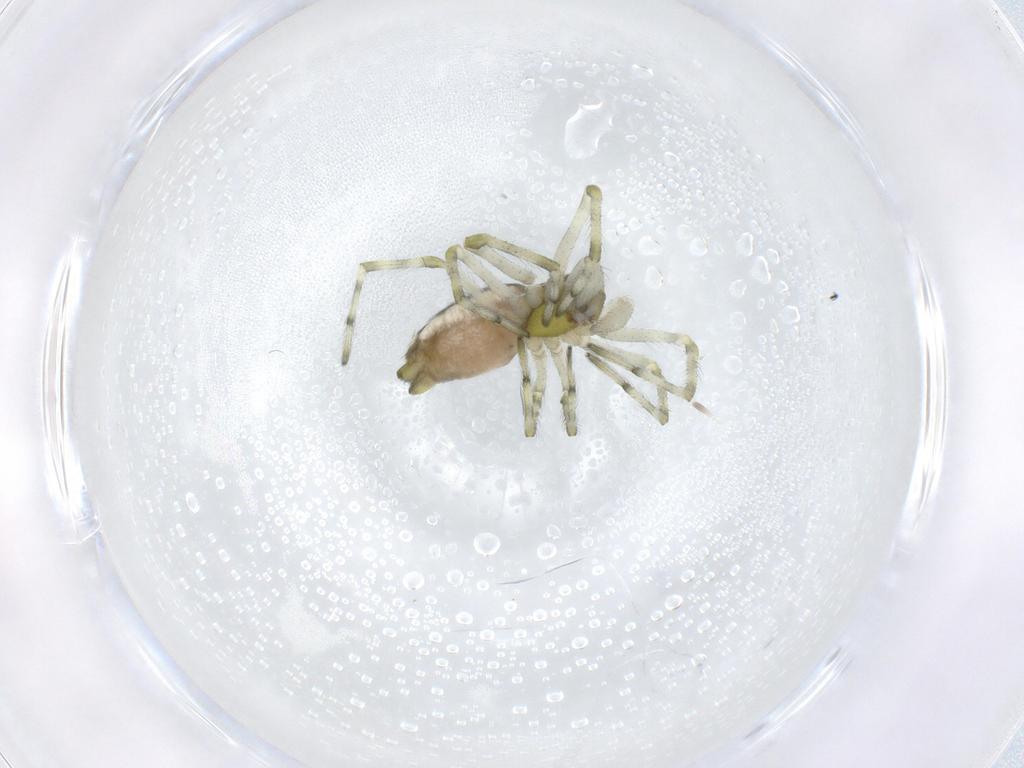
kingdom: Animalia
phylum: Arthropoda
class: Arachnida
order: Araneae
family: Dictynidae
